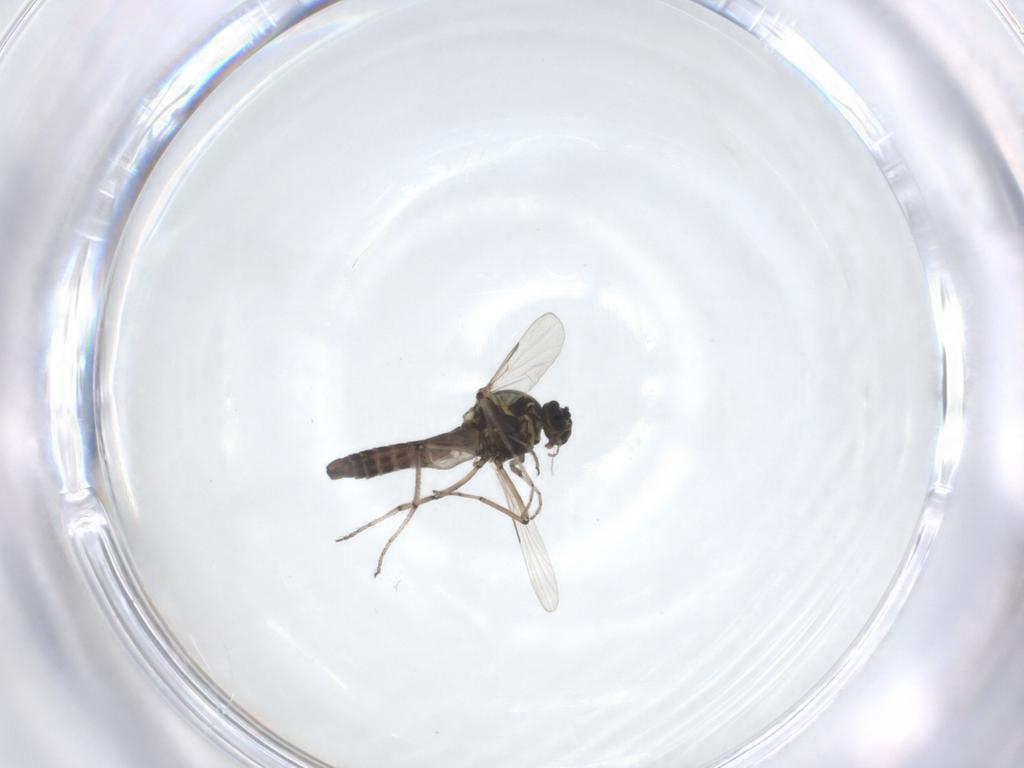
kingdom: Animalia
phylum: Arthropoda
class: Insecta
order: Diptera
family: Ceratopogonidae
